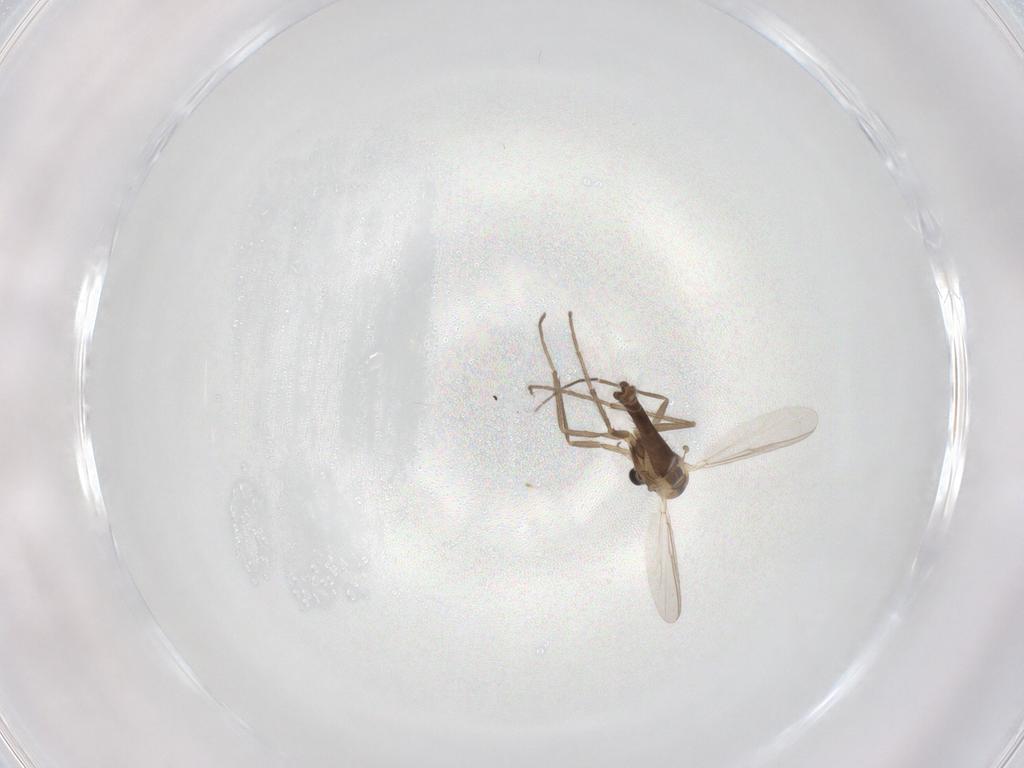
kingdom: Animalia
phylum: Arthropoda
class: Insecta
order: Diptera
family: Chironomidae
